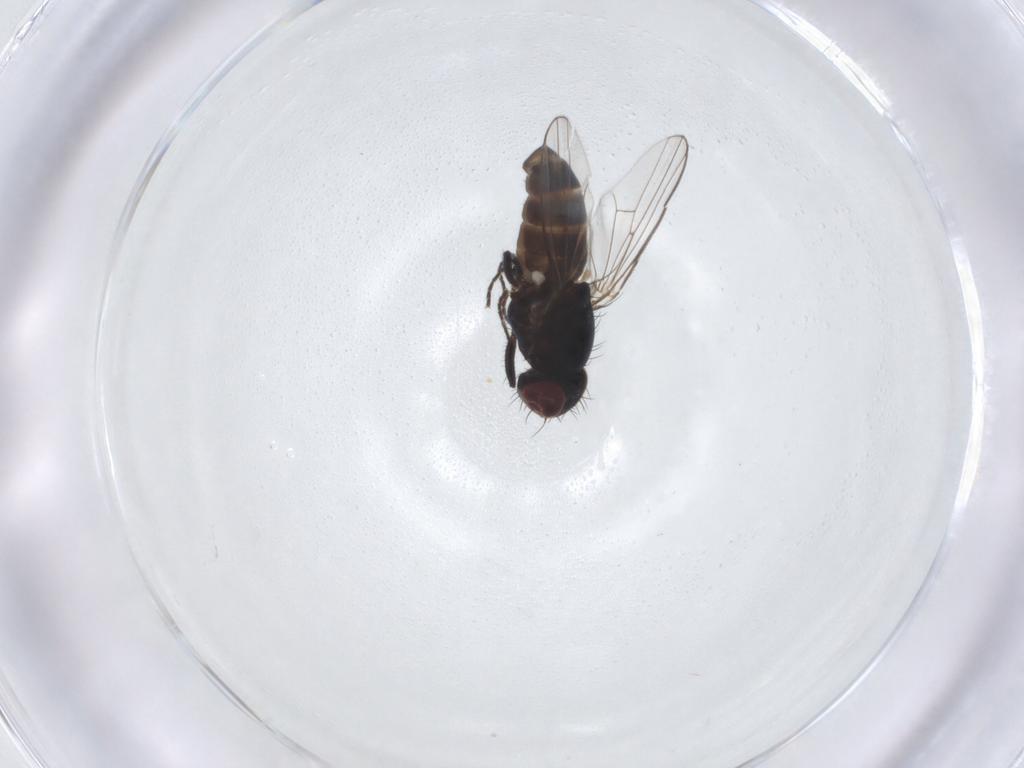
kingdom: Animalia
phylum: Arthropoda
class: Insecta
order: Diptera
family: Carnidae
